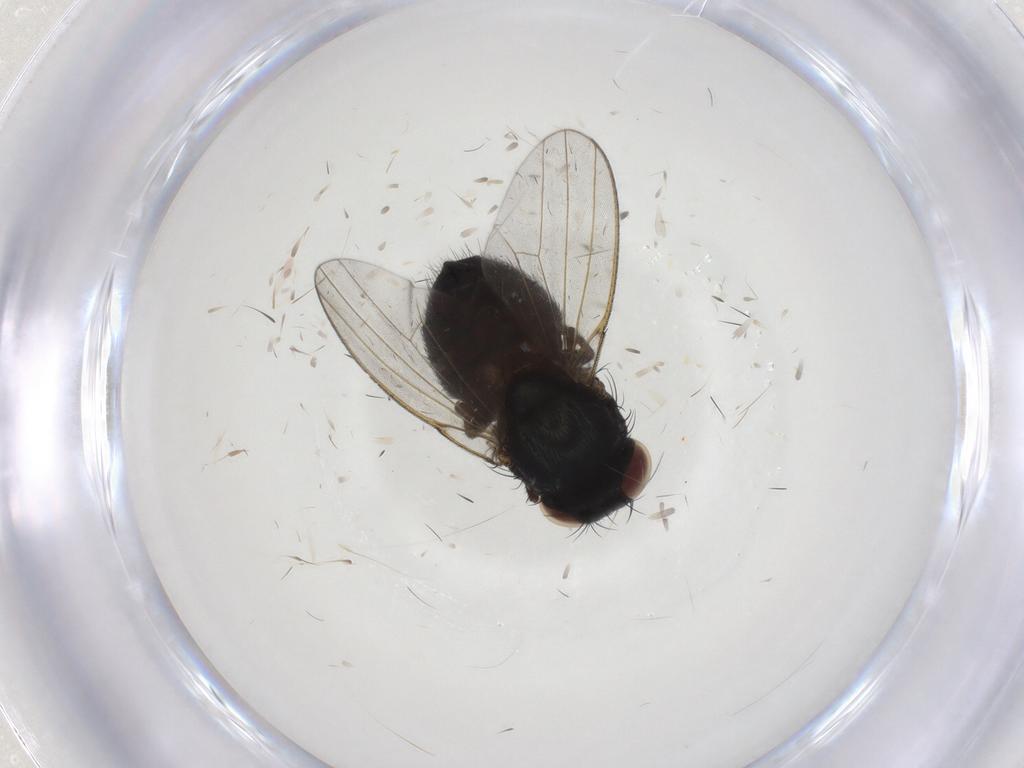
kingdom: Animalia
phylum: Arthropoda
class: Insecta
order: Diptera
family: Milichiidae
